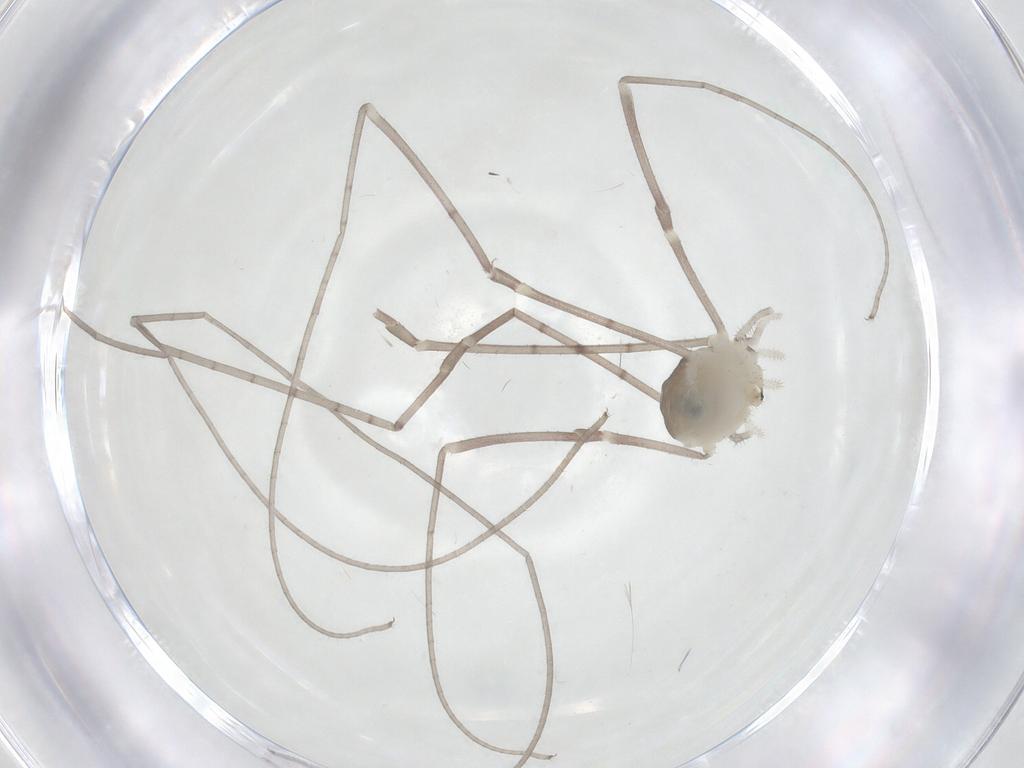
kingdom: Animalia
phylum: Arthropoda
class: Arachnida
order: Opiliones
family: Sclerosomatidae
